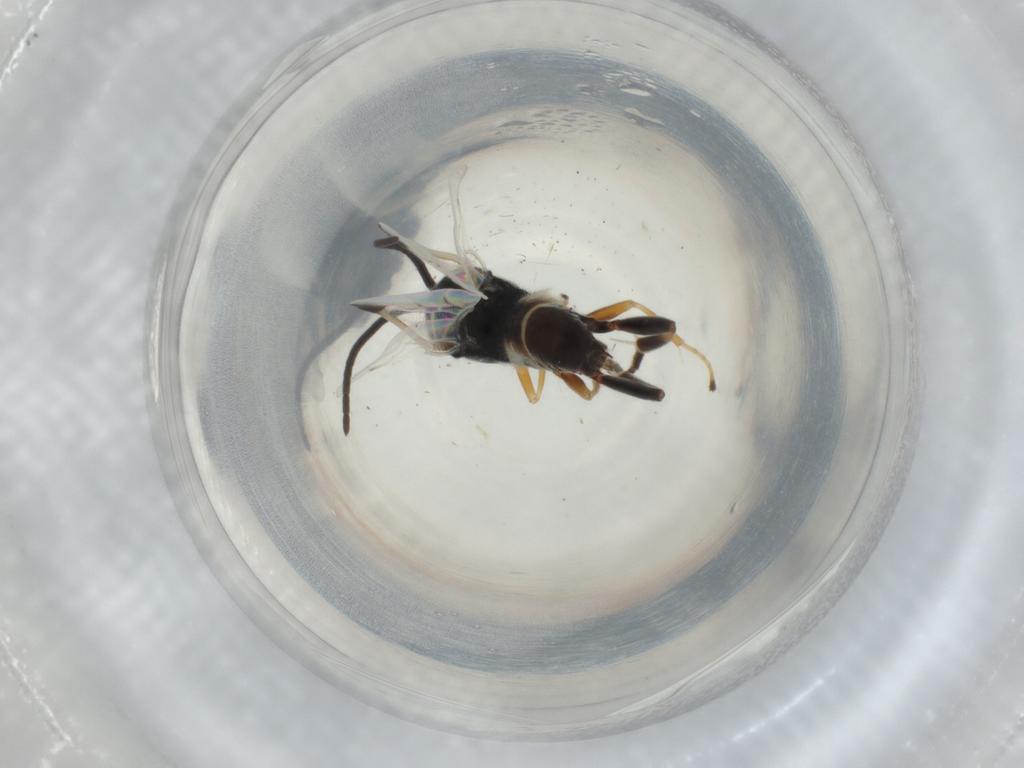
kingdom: Animalia
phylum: Arthropoda
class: Insecta
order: Hymenoptera
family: Braconidae
